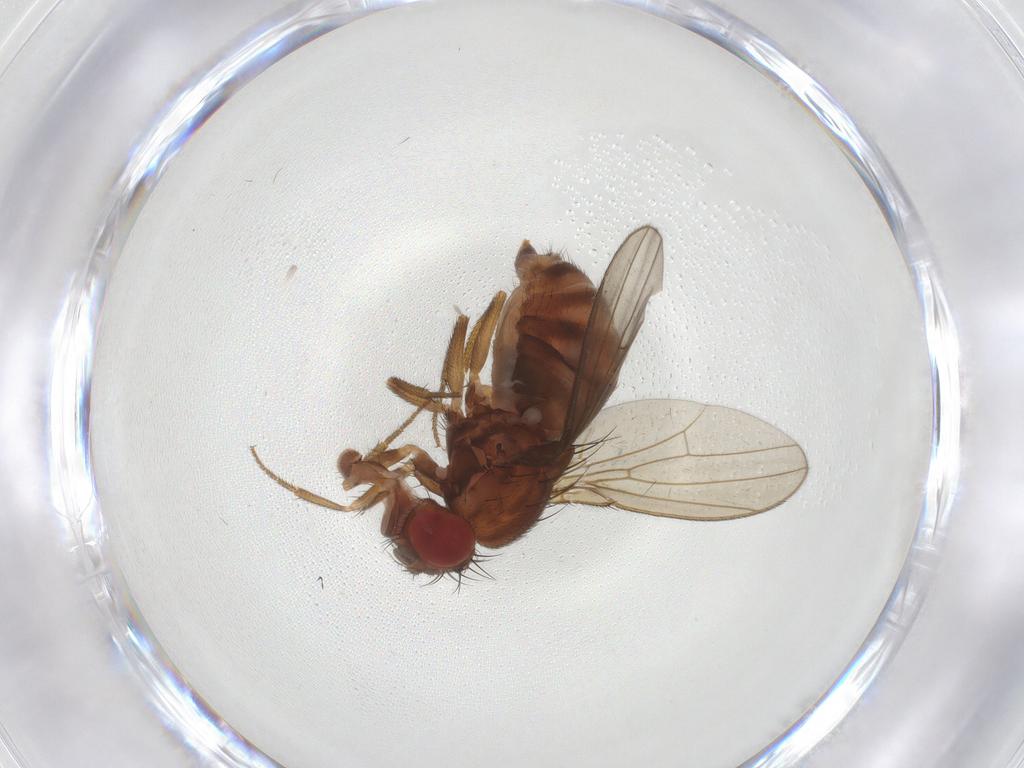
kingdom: Animalia
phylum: Arthropoda
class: Insecta
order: Diptera
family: Drosophilidae
